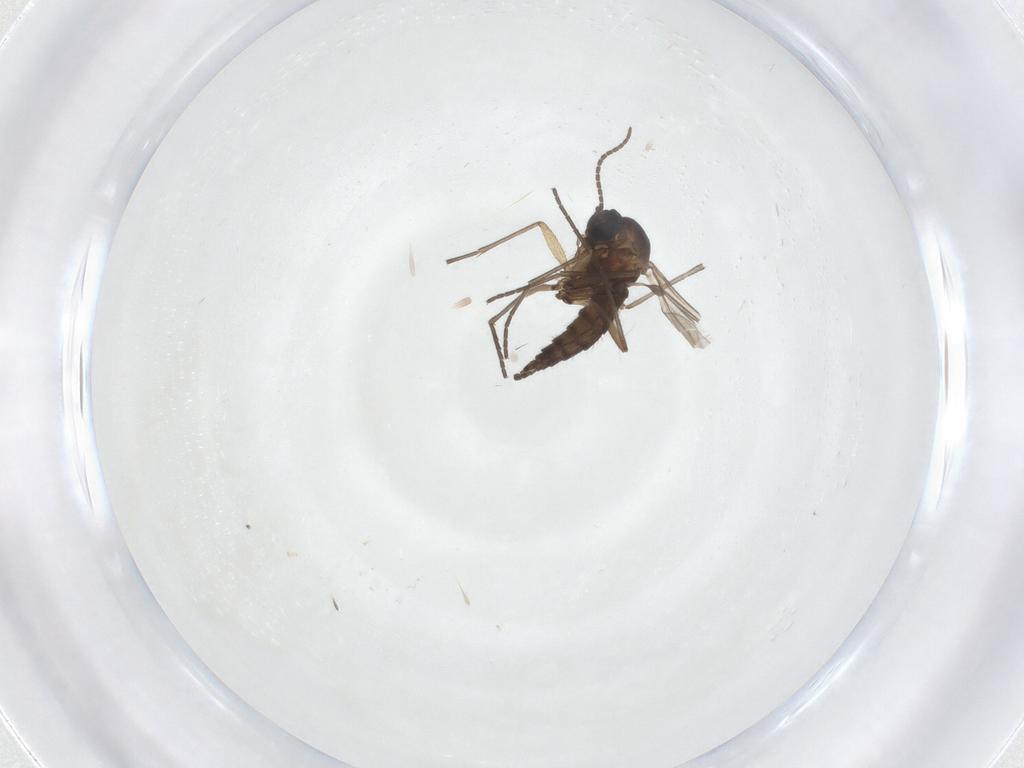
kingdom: Animalia
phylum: Arthropoda
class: Insecta
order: Diptera
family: Sciaridae
